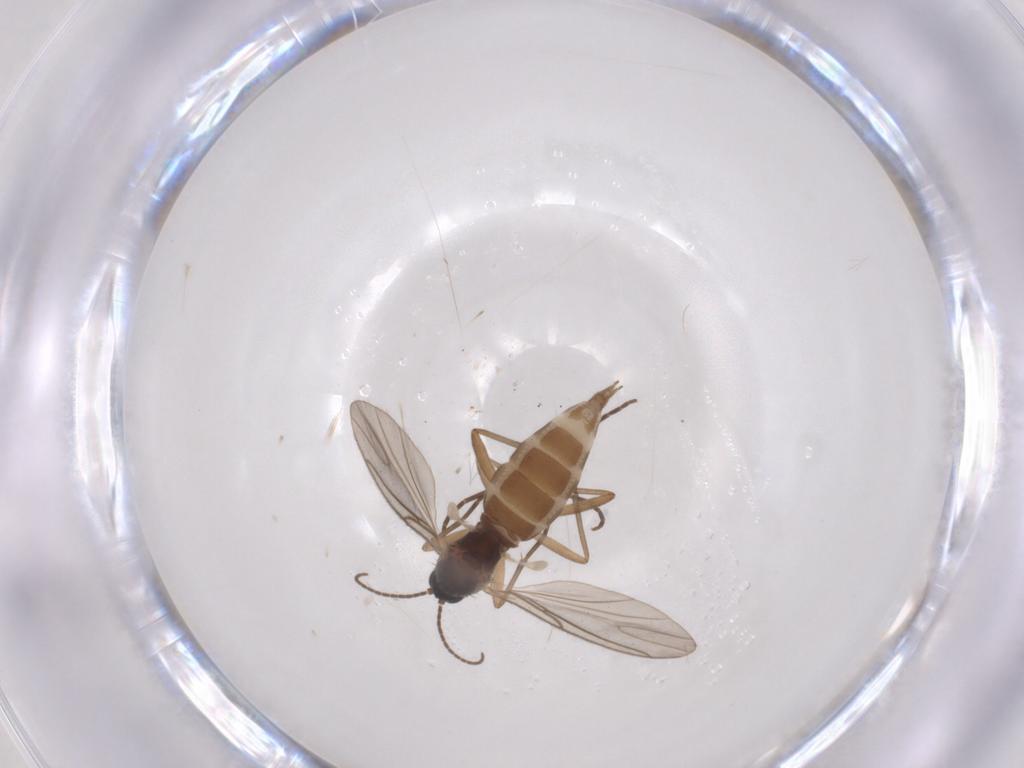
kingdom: Animalia
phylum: Arthropoda
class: Insecta
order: Diptera
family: Sciaridae
